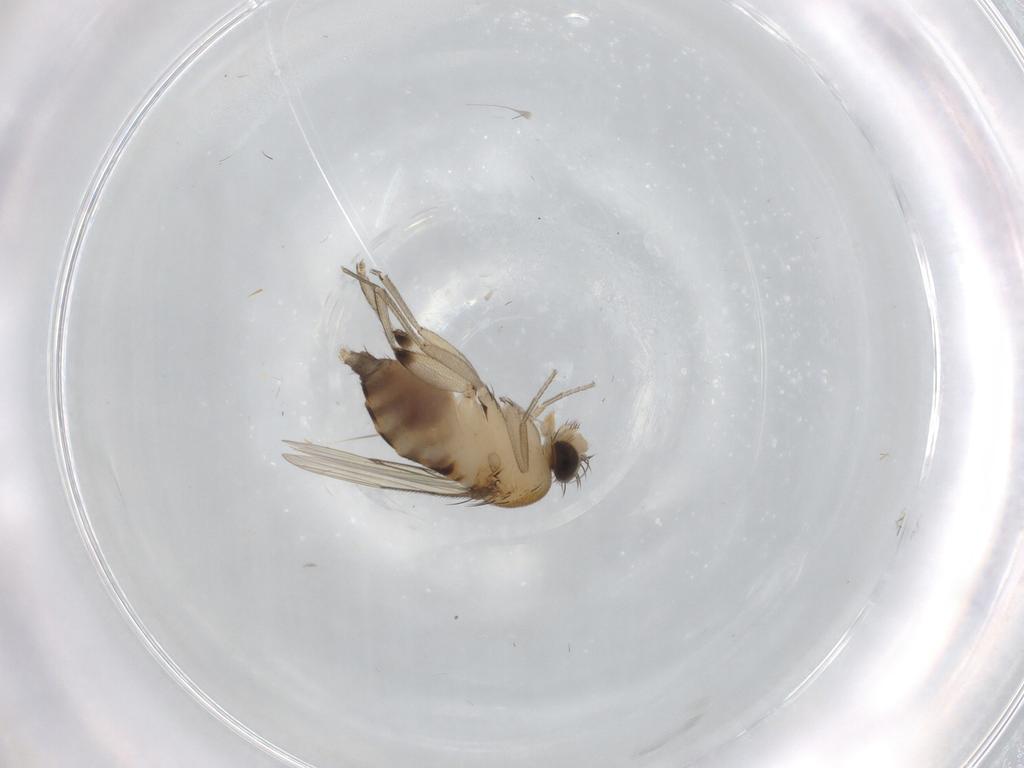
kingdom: Animalia
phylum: Arthropoda
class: Insecta
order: Diptera
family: Phoridae
